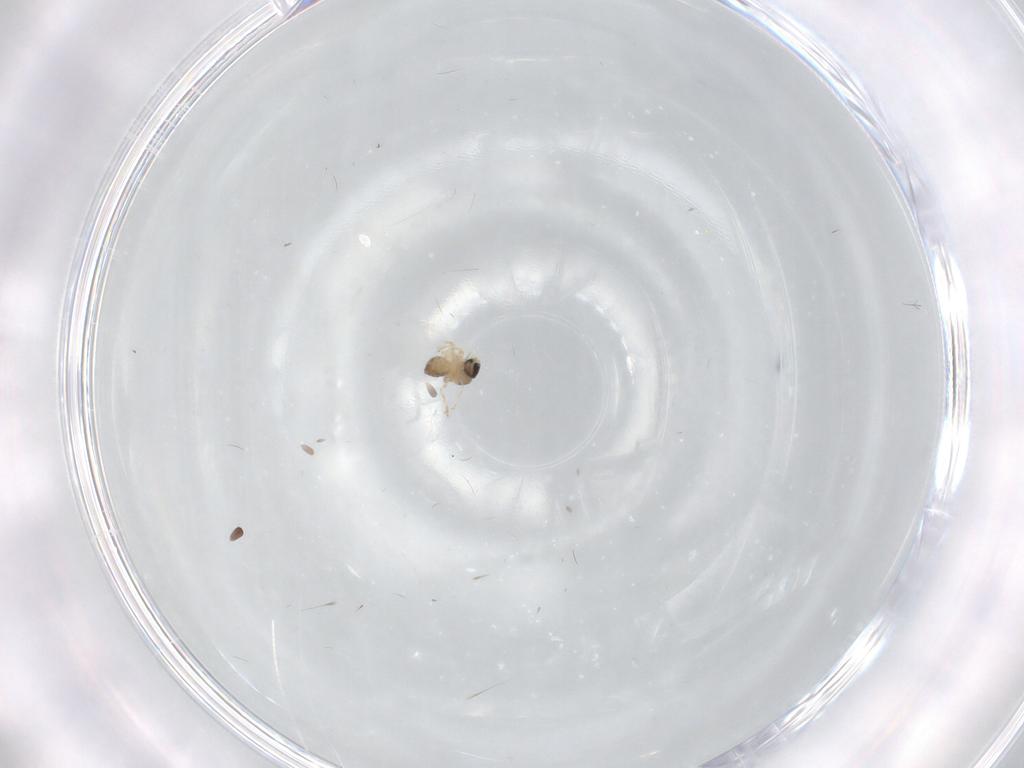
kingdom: Animalia
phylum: Arthropoda
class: Insecta
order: Diptera
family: Cecidomyiidae
